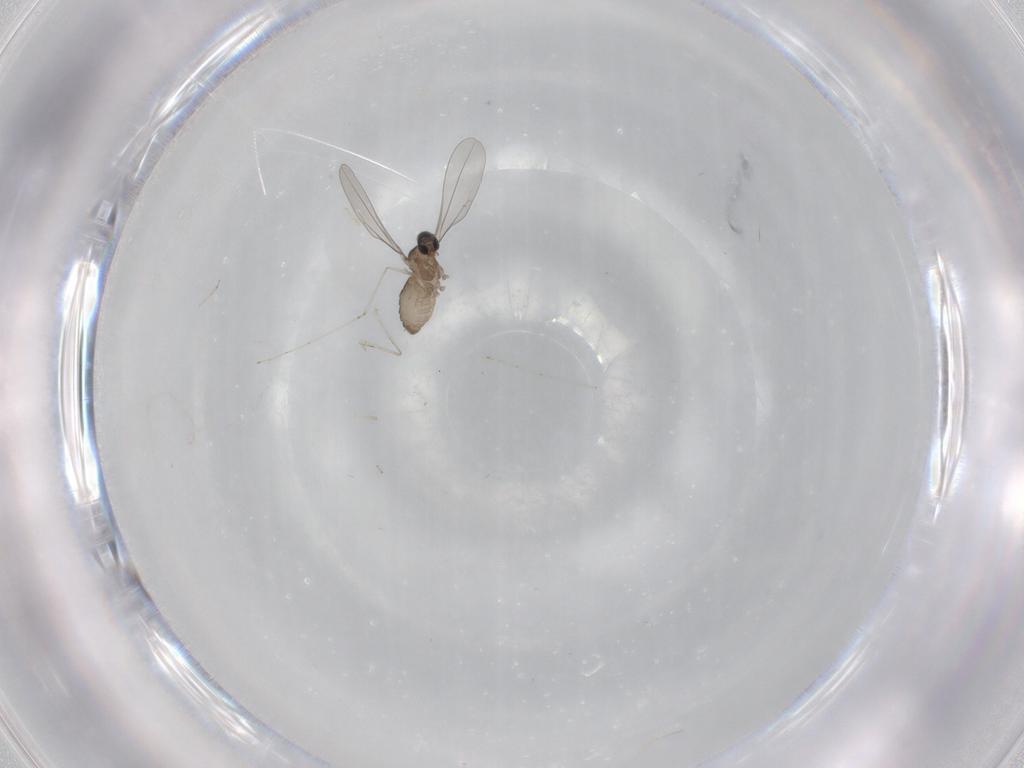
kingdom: Animalia
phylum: Arthropoda
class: Insecta
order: Diptera
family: Cecidomyiidae
